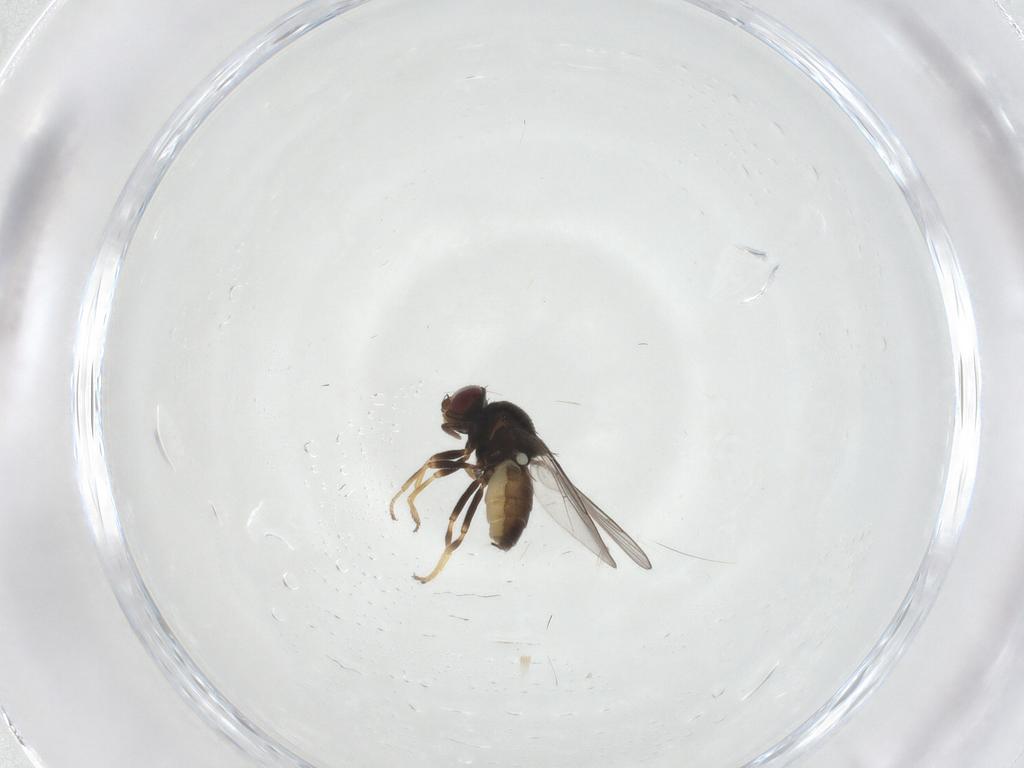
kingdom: Animalia
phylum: Arthropoda
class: Insecta
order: Diptera
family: Chloropidae
